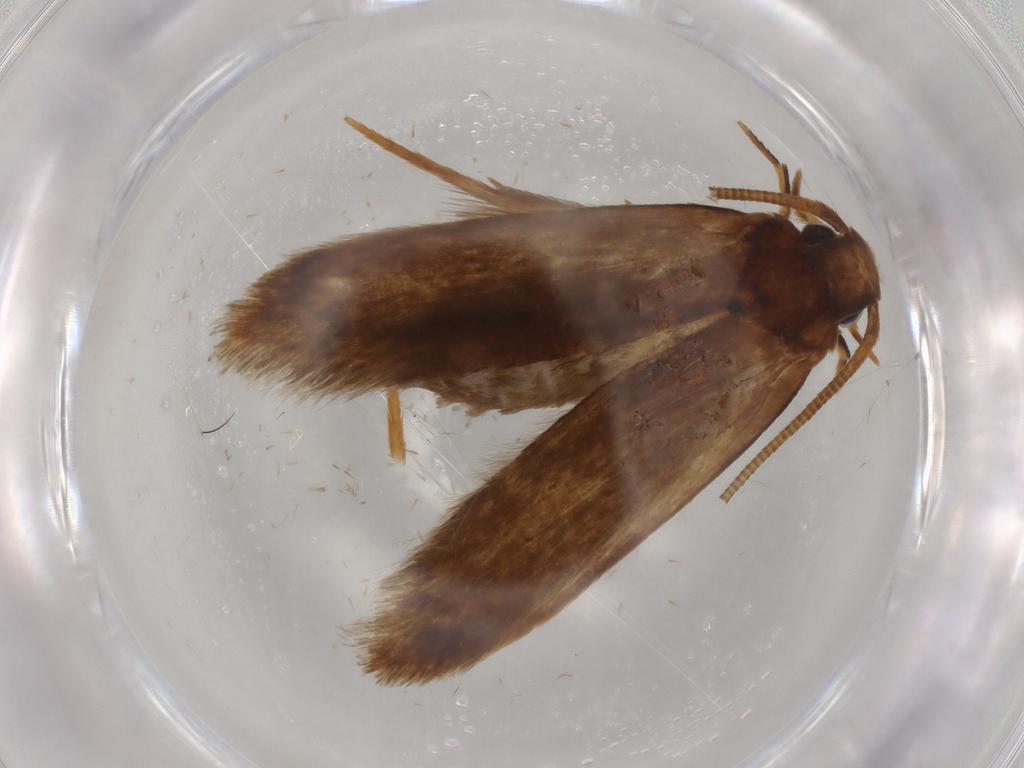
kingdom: Animalia
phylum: Arthropoda
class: Insecta
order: Lepidoptera
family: Tineidae
